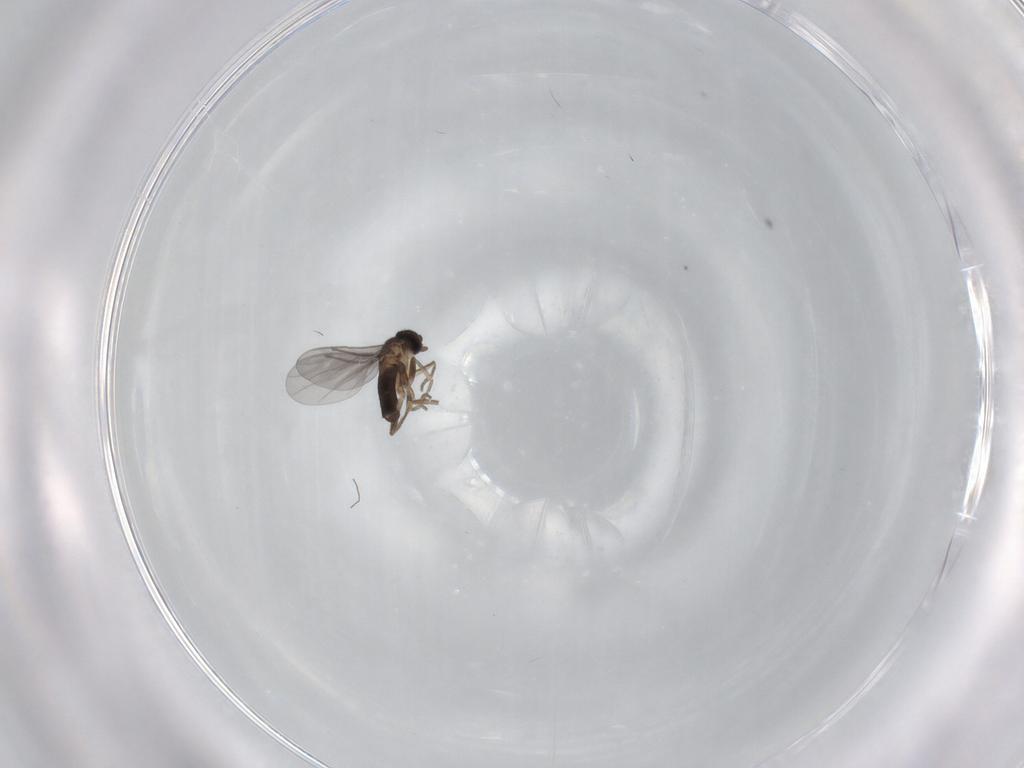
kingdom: Animalia
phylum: Arthropoda
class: Insecta
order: Diptera
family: Phoridae
